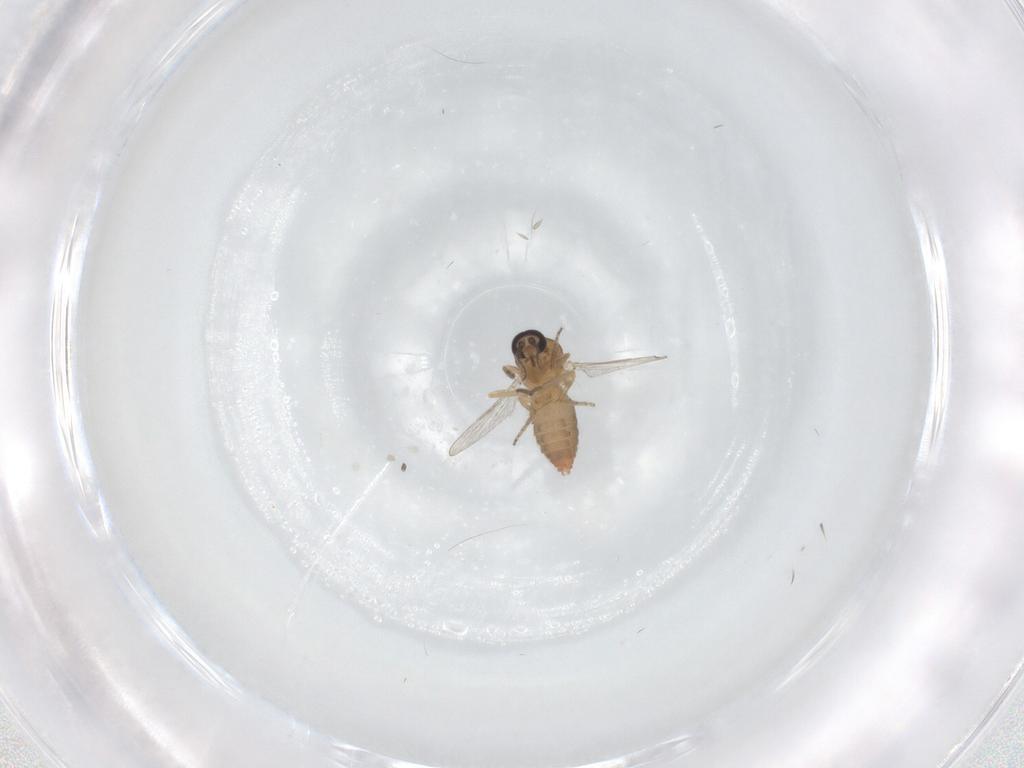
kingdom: Animalia
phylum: Arthropoda
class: Insecta
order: Diptera
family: Ceratopogonidae
